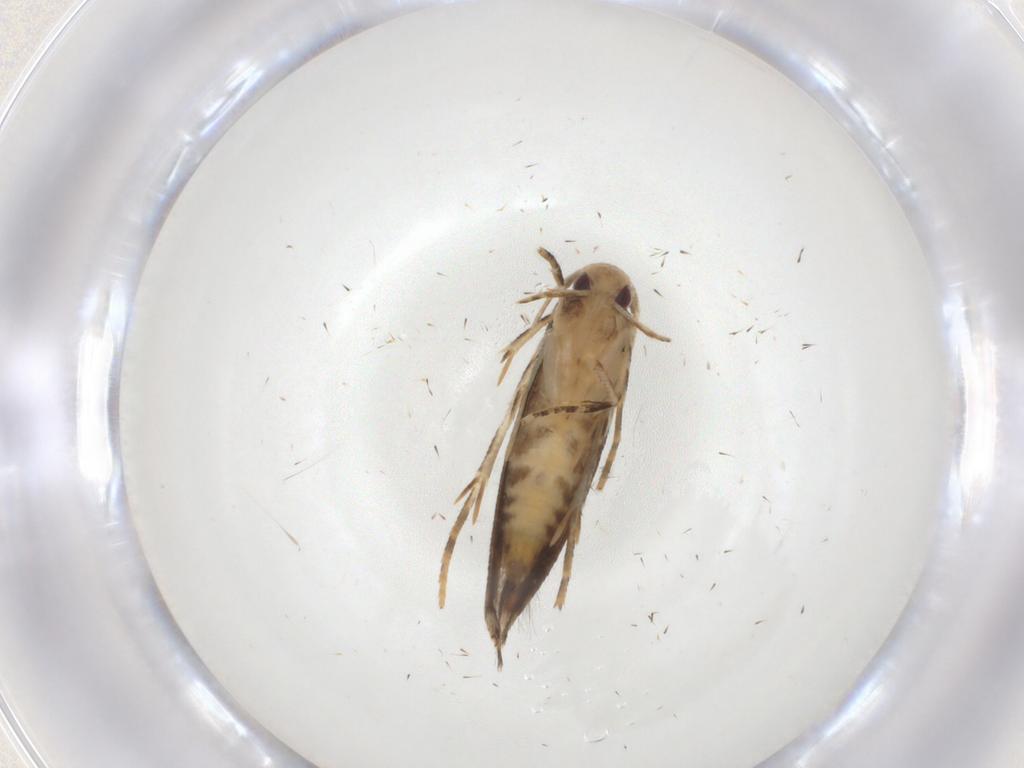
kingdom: Animalia
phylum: Arthropoda
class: Insecta
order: Lepidoptera
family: Momphidae
